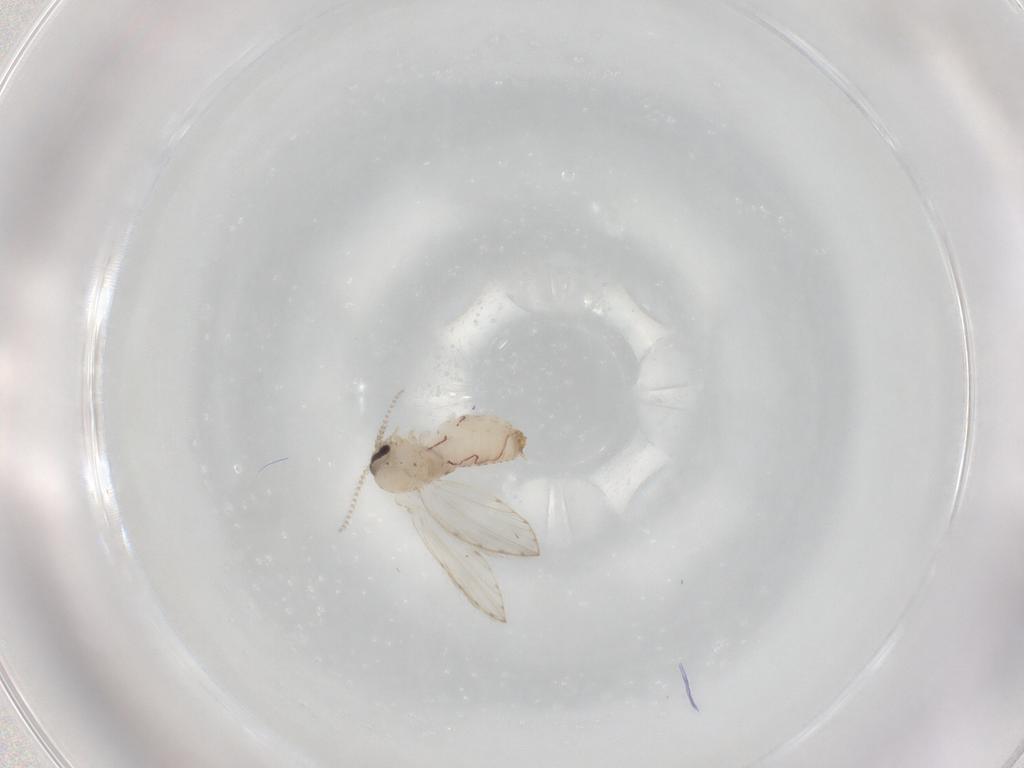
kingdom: Animalia
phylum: Arthropoda
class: Insecta
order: Diptera
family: Psychodidae
